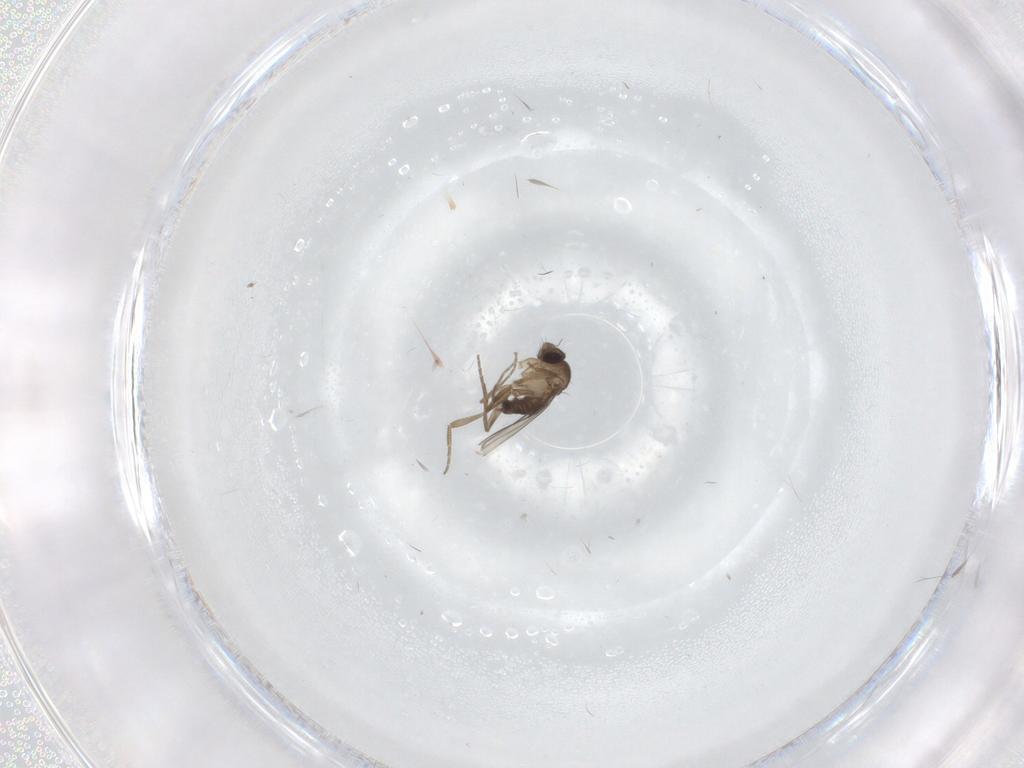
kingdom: Animalia
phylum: Arthropoda
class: Insecta
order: Diptera
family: Phoridae
